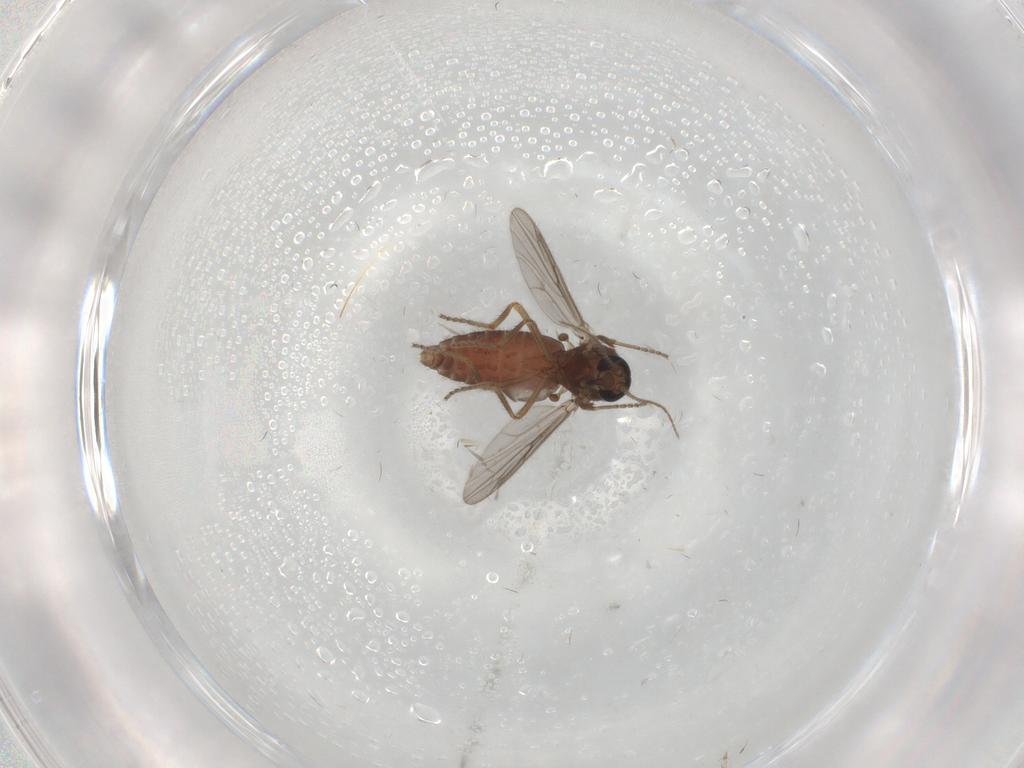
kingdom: Animalia
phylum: Arthropoda
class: Insecta
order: Diptera
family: Ceratopogonidae
